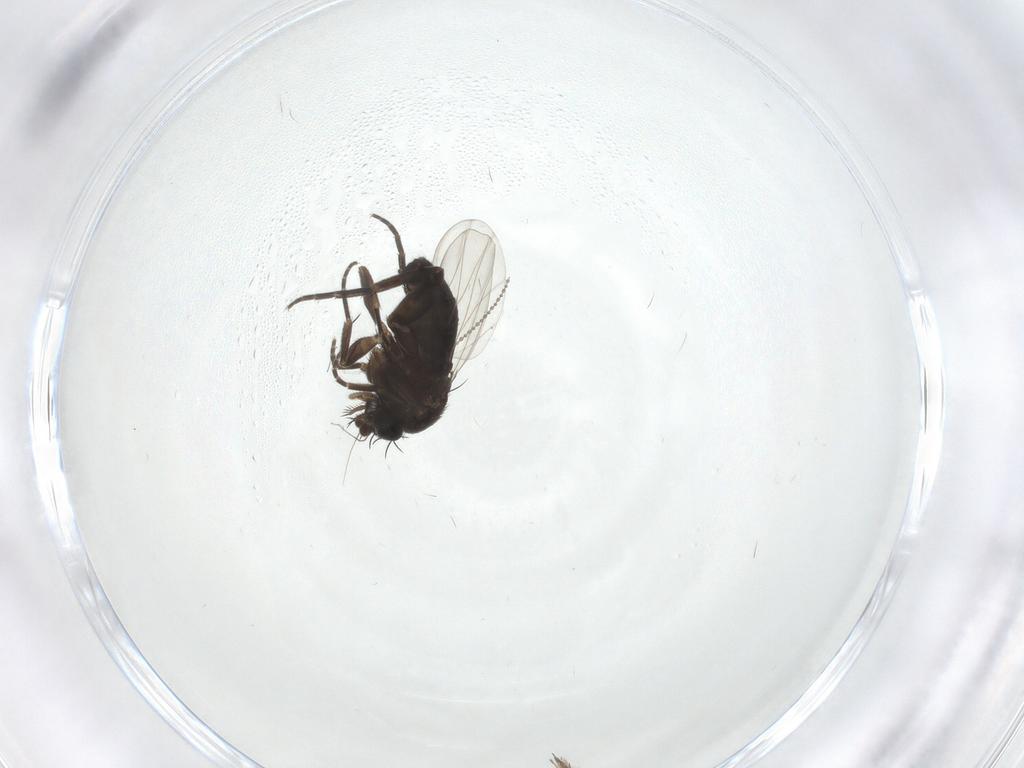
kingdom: Animalia
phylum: Arthropoda
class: Insecta
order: Diptera
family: Phoridae
